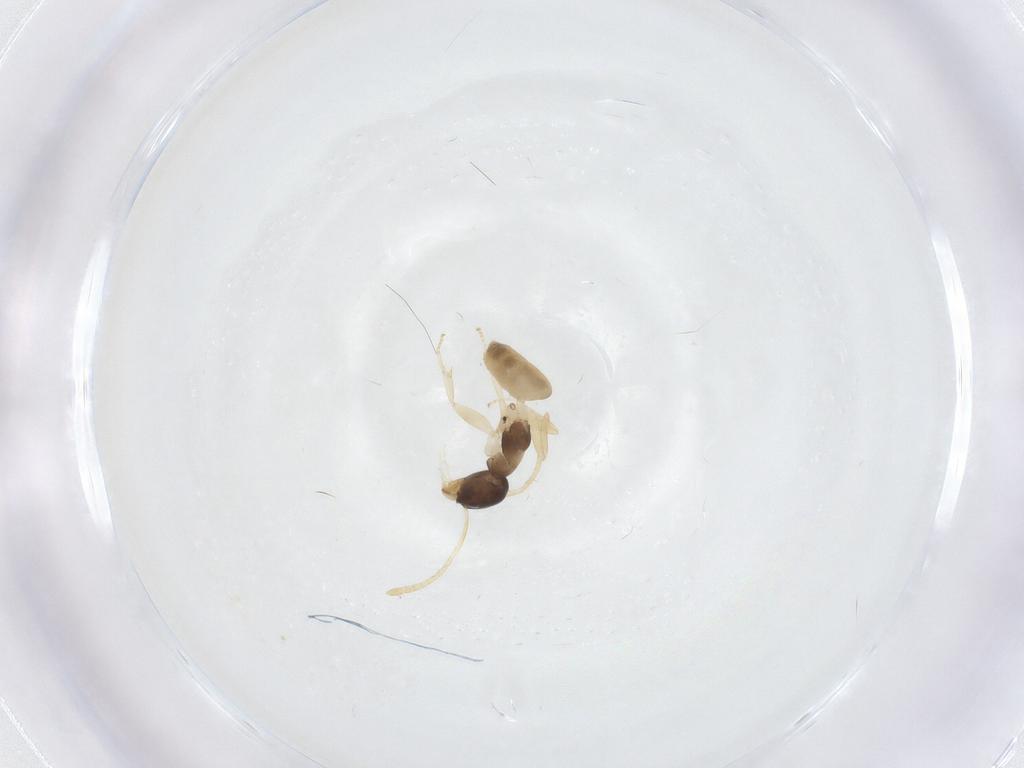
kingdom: Animalia
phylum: Arthropoda
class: Insecta
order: Hymenoptera
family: Formicidae
